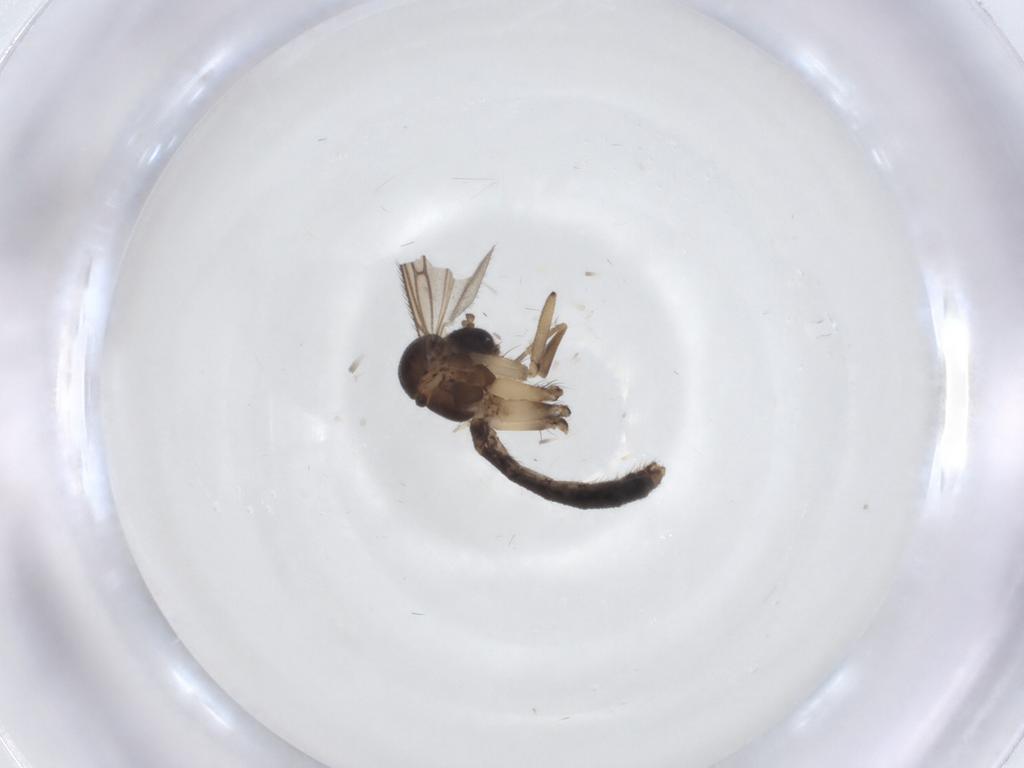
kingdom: Animalia
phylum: Arthropoda
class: Insecta
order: Diptera
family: Phoridae
